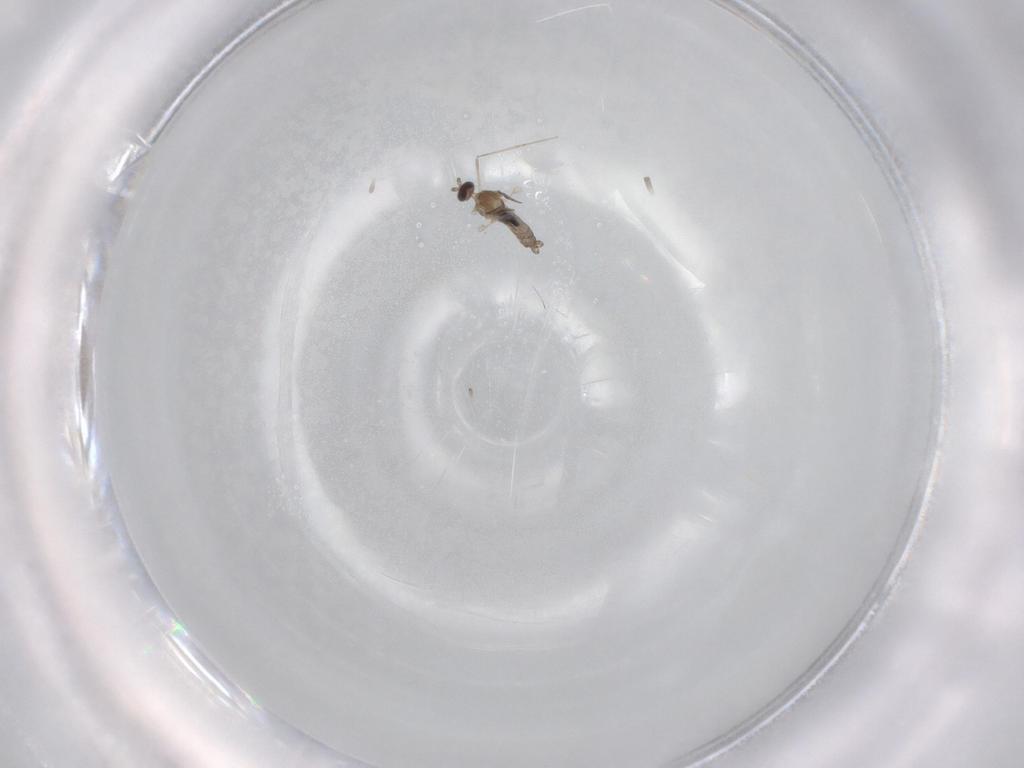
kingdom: Animalia
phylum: Arthropoda
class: Insecta
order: Diptera
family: Cecidomyiidae
